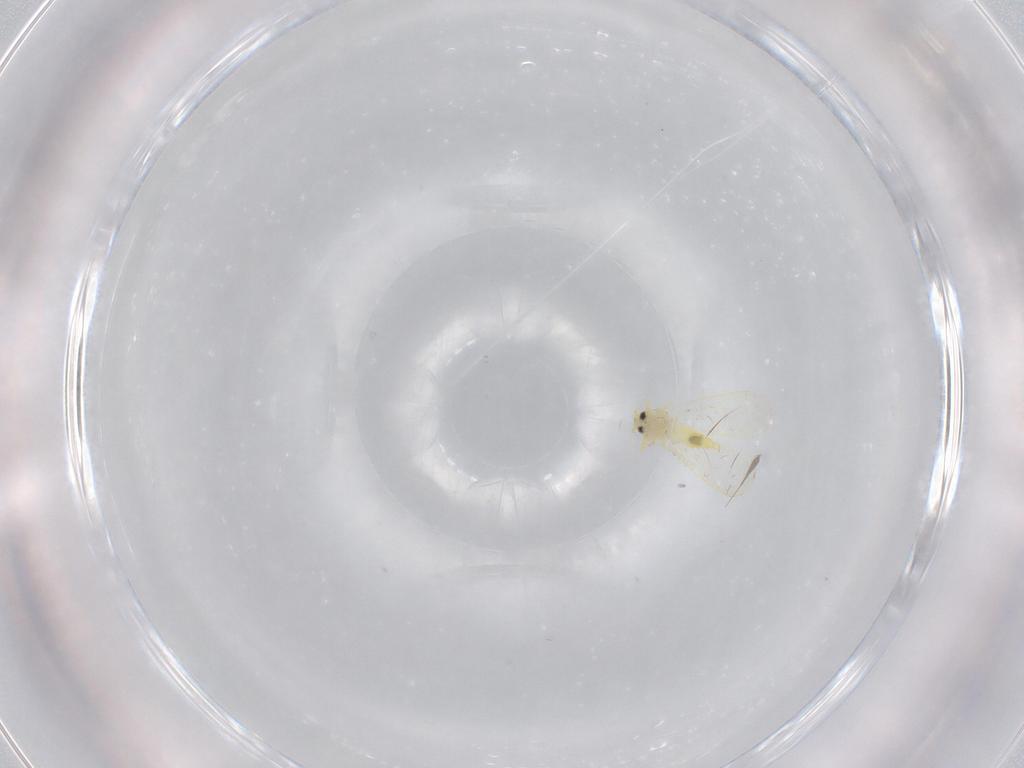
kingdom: Animalia
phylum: Arthropoda
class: Insecta
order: Hemiptera
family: Aleyrodidae
